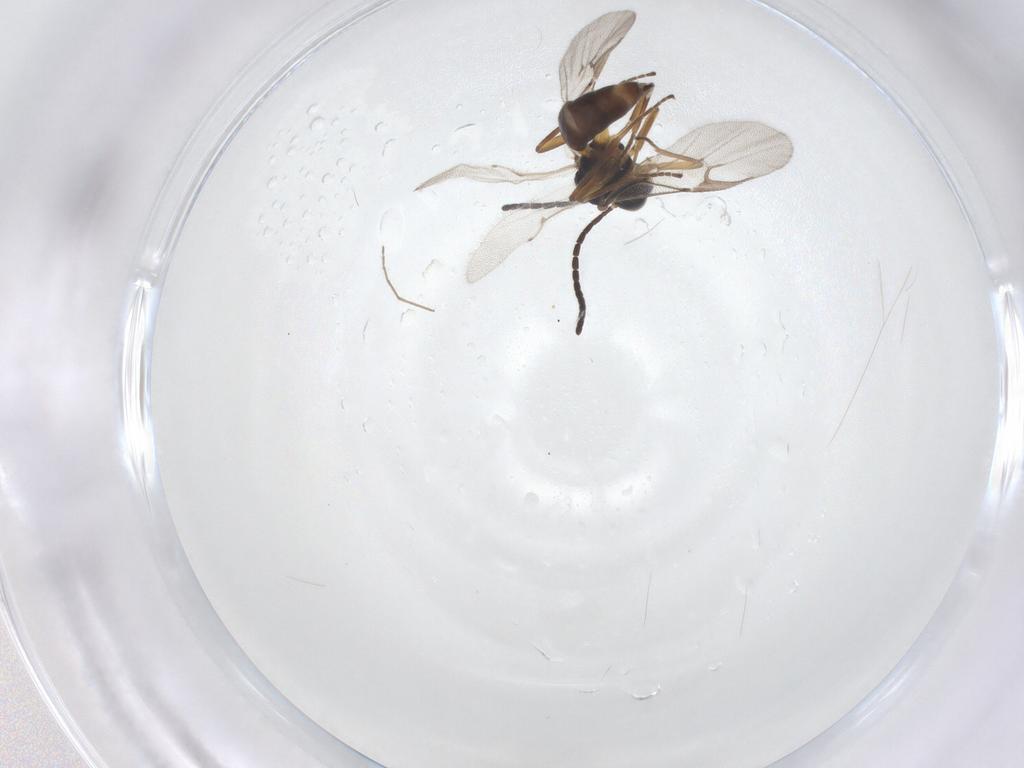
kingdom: Animalia
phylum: Arthropoda
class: Insecta
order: Hymenoptera
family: Braconidae
